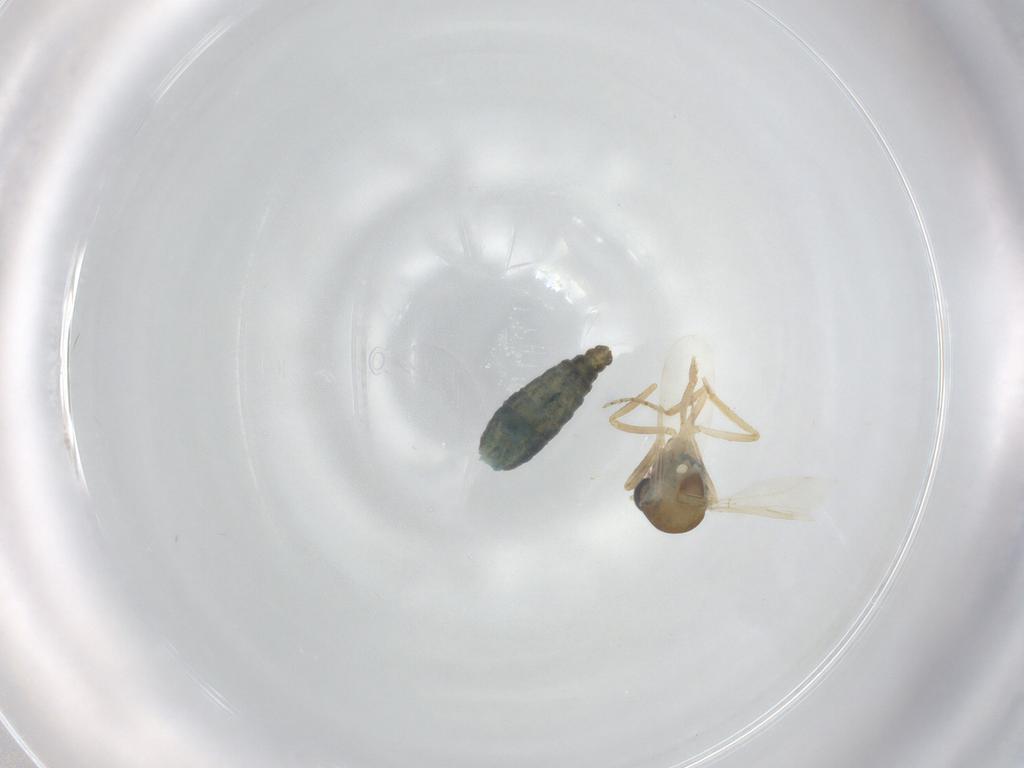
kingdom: Animalia
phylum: Arthropoda
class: Insecta
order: Diptera
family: Ceratopogonidae
